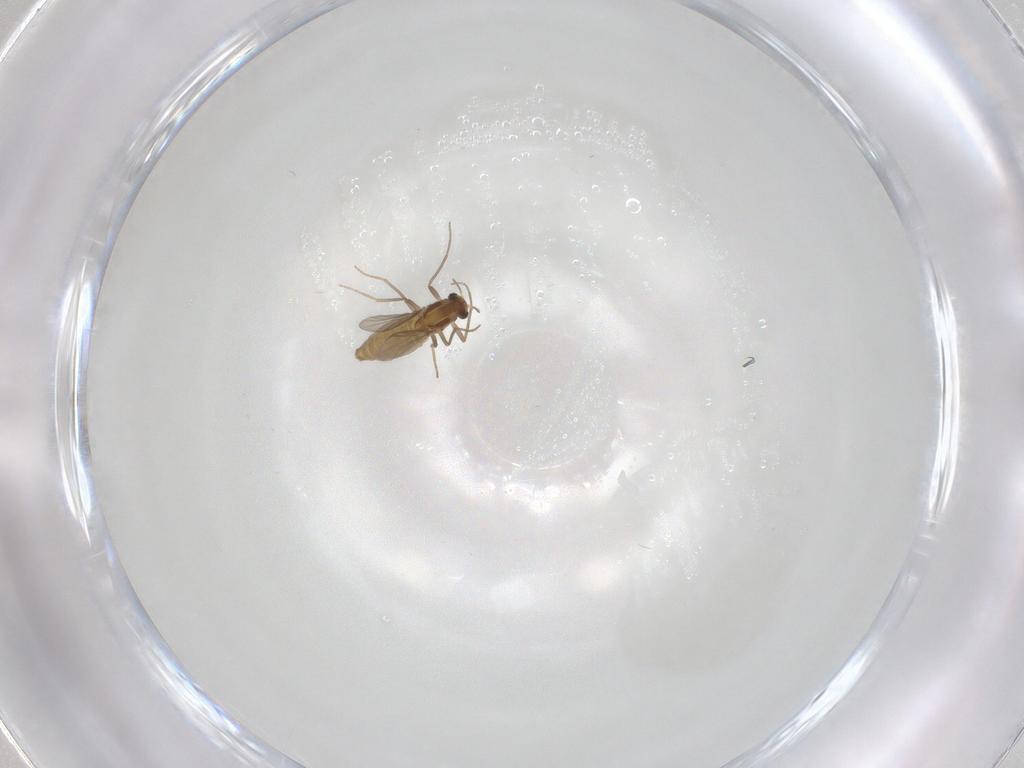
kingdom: Animalia
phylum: Arthropoda
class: Insecta
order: Diptera
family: Chironomidae
